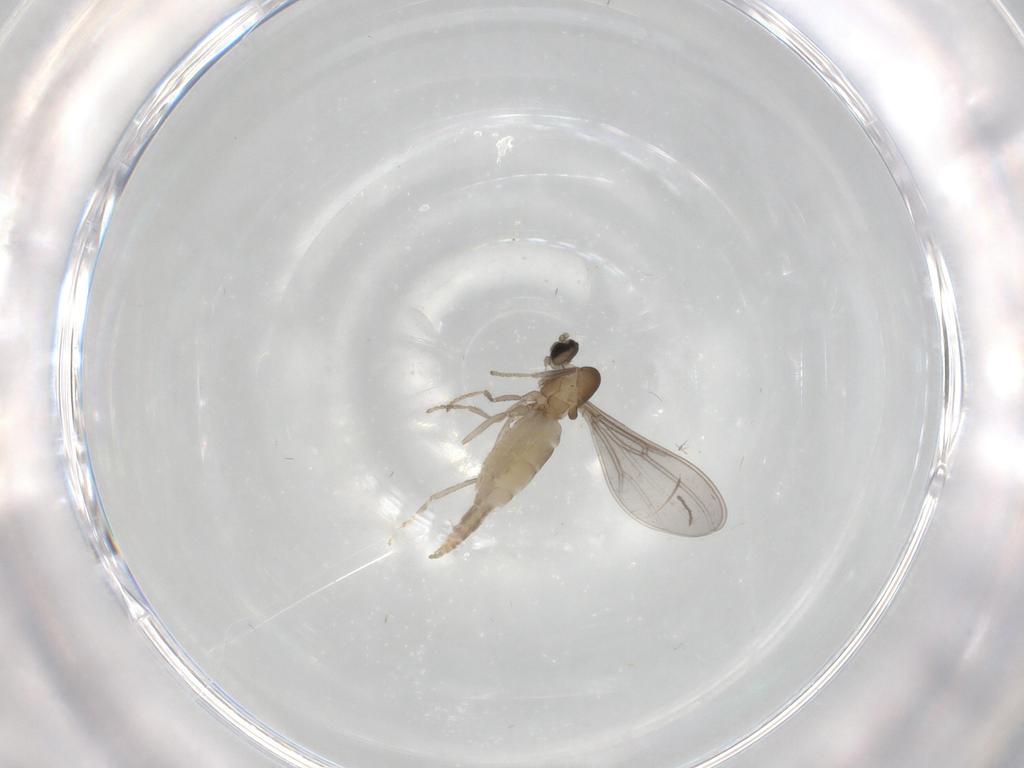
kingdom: Animalia
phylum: Arthropoda
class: Insecta
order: Diptera
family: Cecidomyiidae
